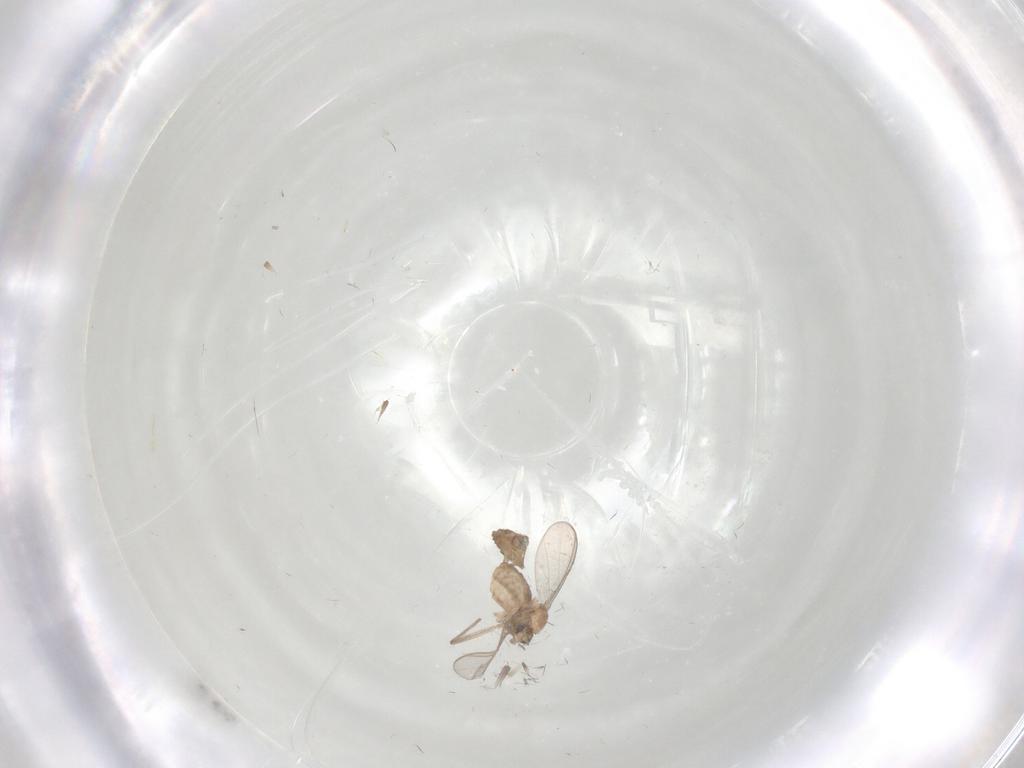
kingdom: Animalia
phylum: Arthropoda
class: Insecta
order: Diptera
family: Chironomidae
